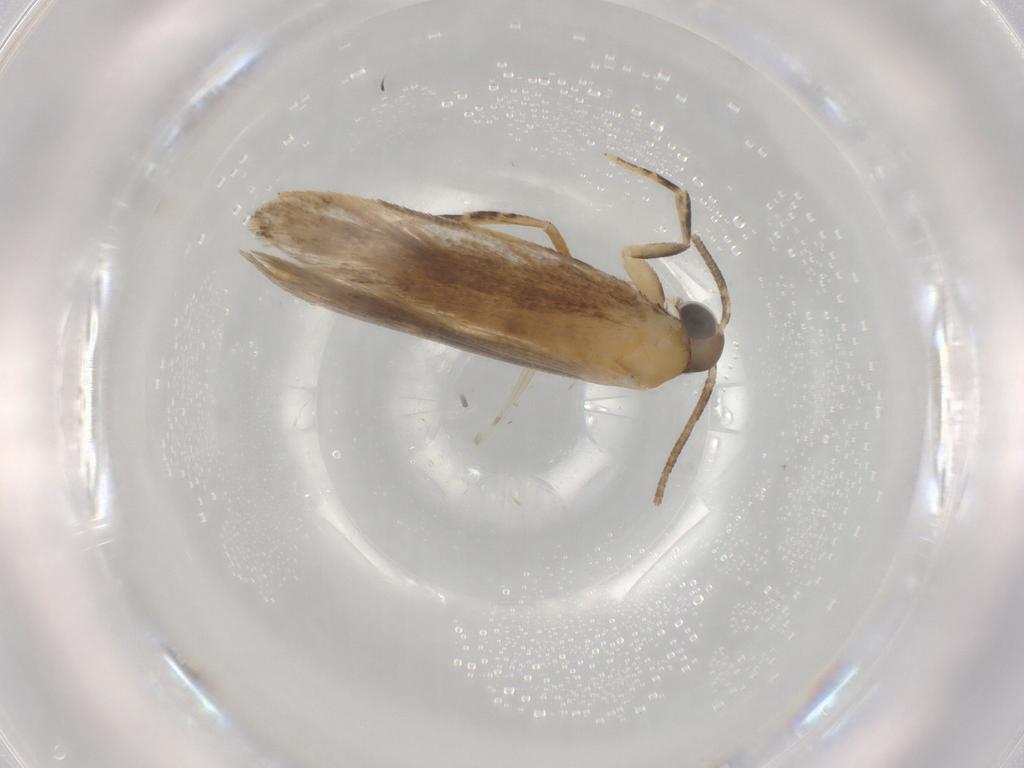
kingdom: Animalia
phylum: Arthropoda
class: Insecta
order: Lepidoptera
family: Autostichidae
